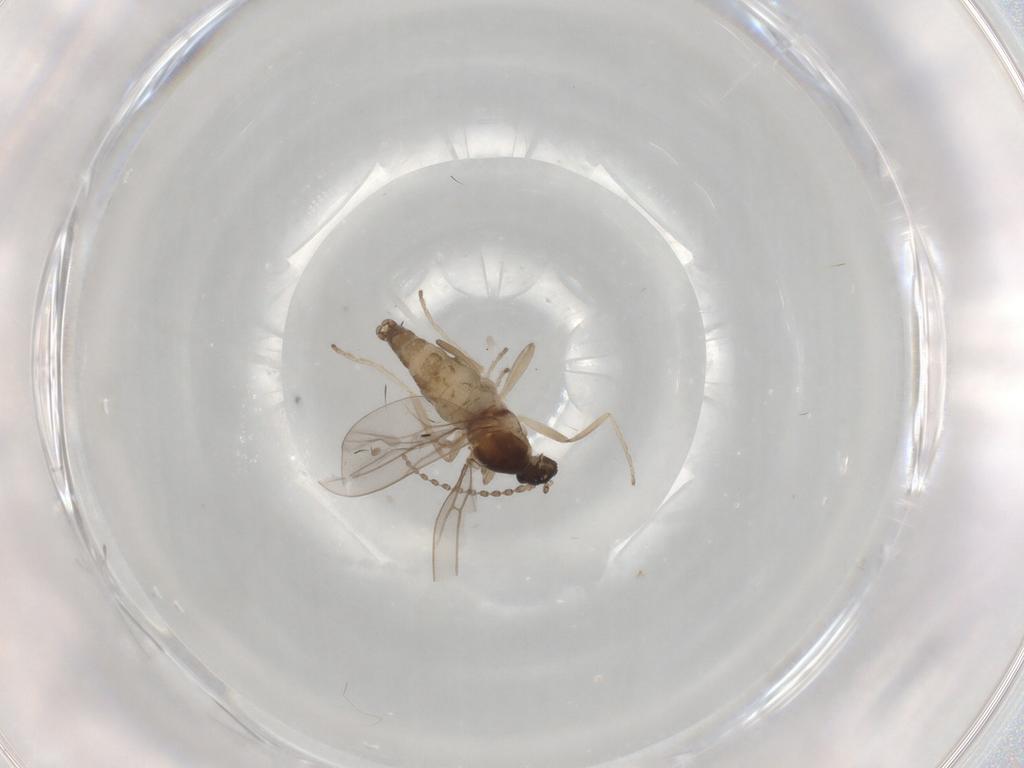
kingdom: Animalia
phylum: Arthropoda
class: Insecta
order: Diptera
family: Cecidomyiidae
